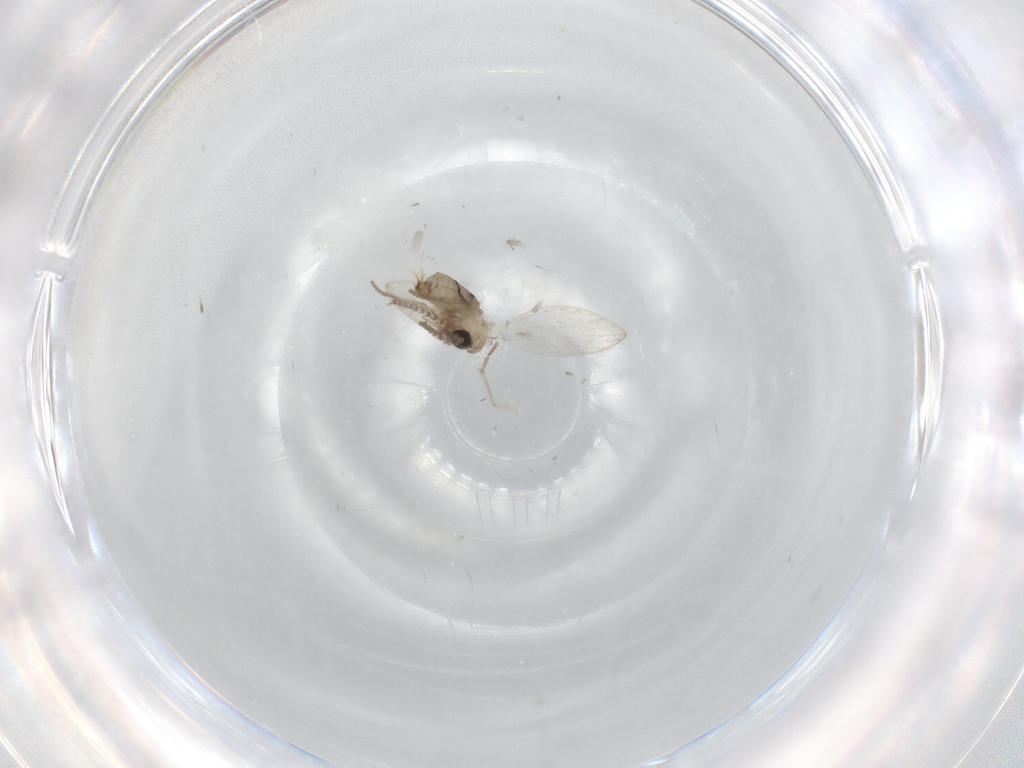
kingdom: Animalia
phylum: Arthropoda
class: Insecta
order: Diptera
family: Psychodidae
